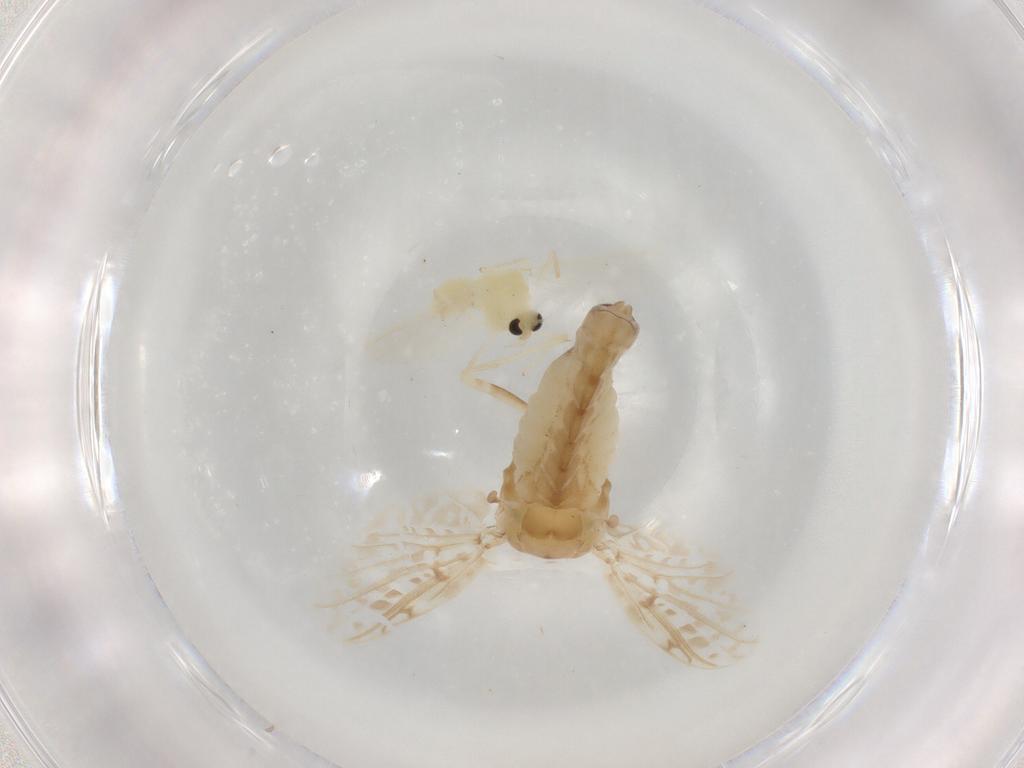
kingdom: Animalia
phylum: Arthropoda
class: Insecta
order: Diptera
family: Cecidomyiidae
